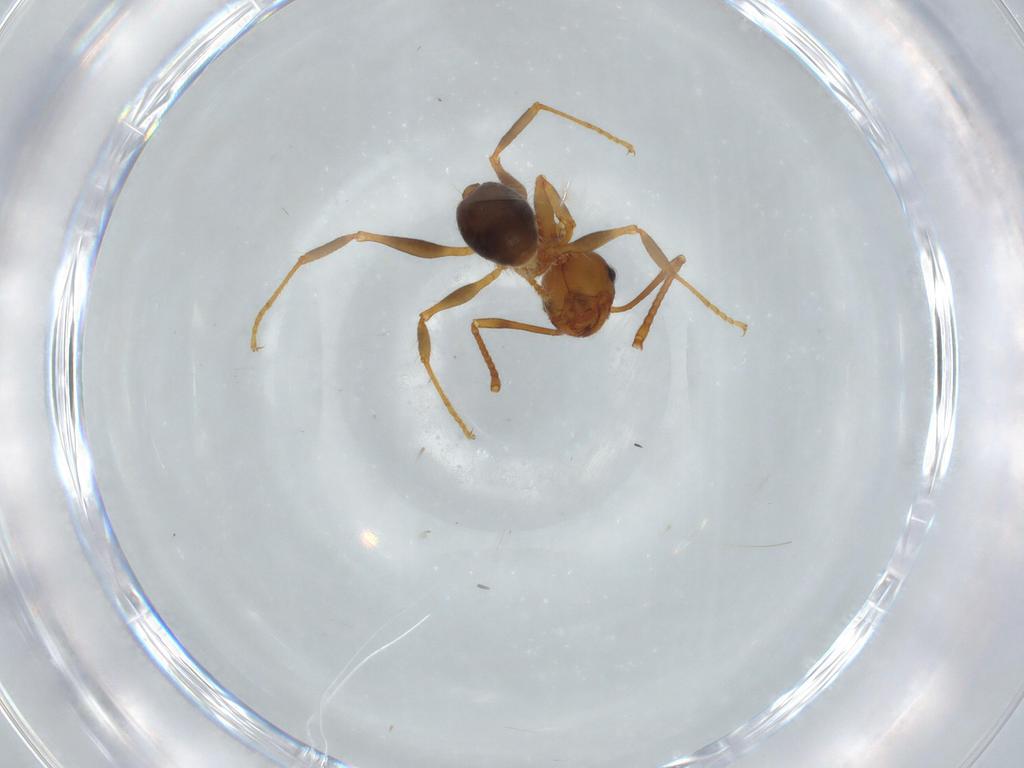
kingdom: Animalia
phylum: Arthropoda
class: Insecta
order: Hymenoptera
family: Formicidae
